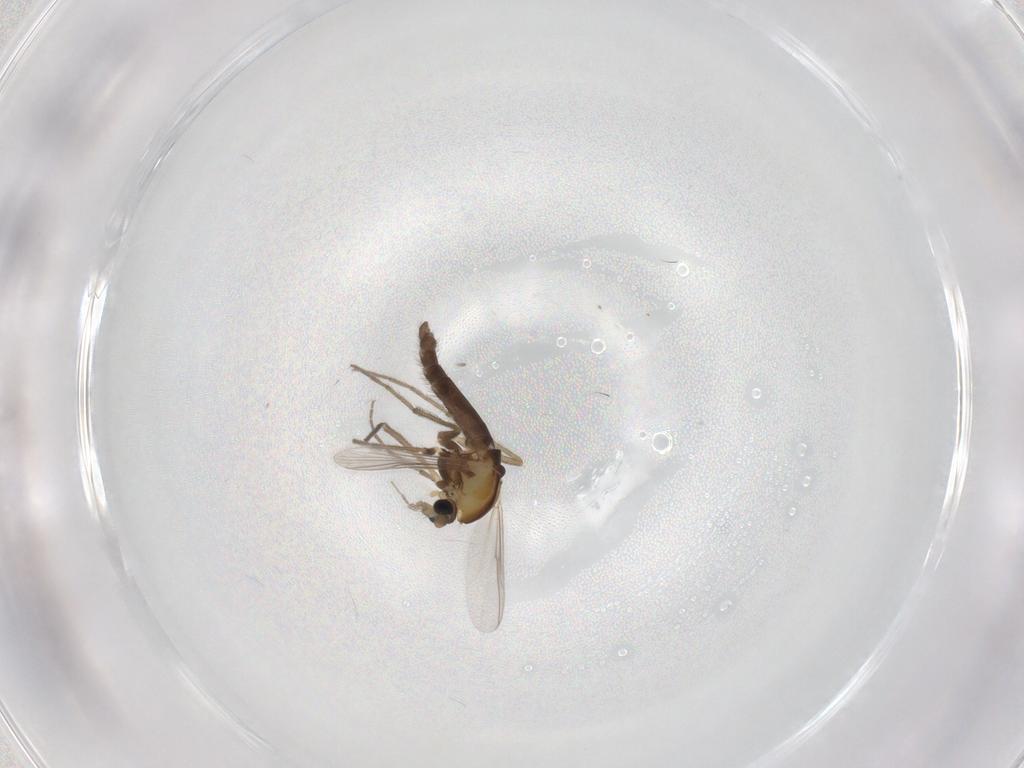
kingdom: Animalia
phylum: Arthropoda
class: Insecta
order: Diptera
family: Chironomidae
